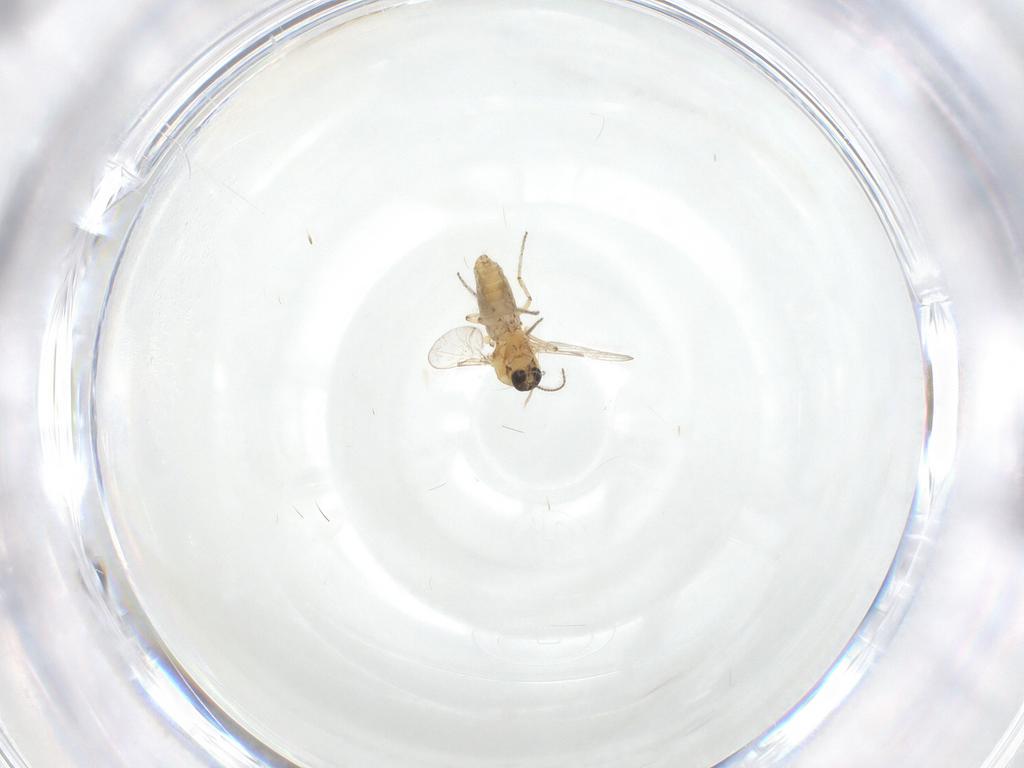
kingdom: Animalia
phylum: Arthropoda
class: Insecta
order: Diptera
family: Ceratopogonidae
